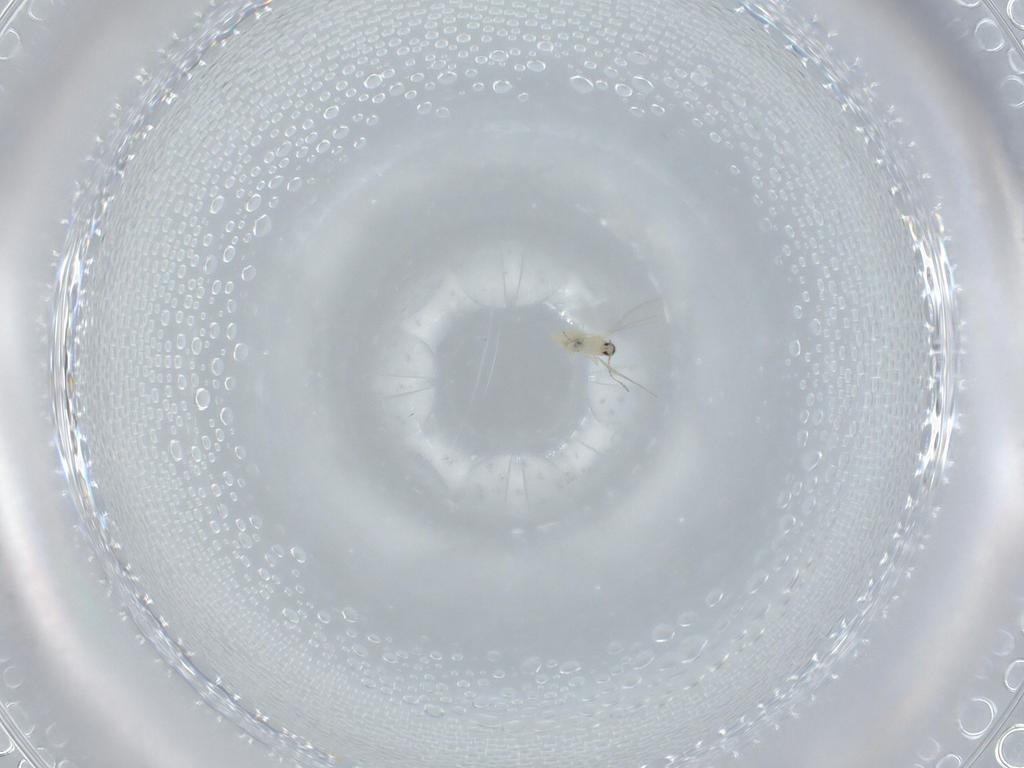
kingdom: Animalia
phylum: Arthropoda
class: Insecta
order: Diptera
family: Cecidomyiidae
